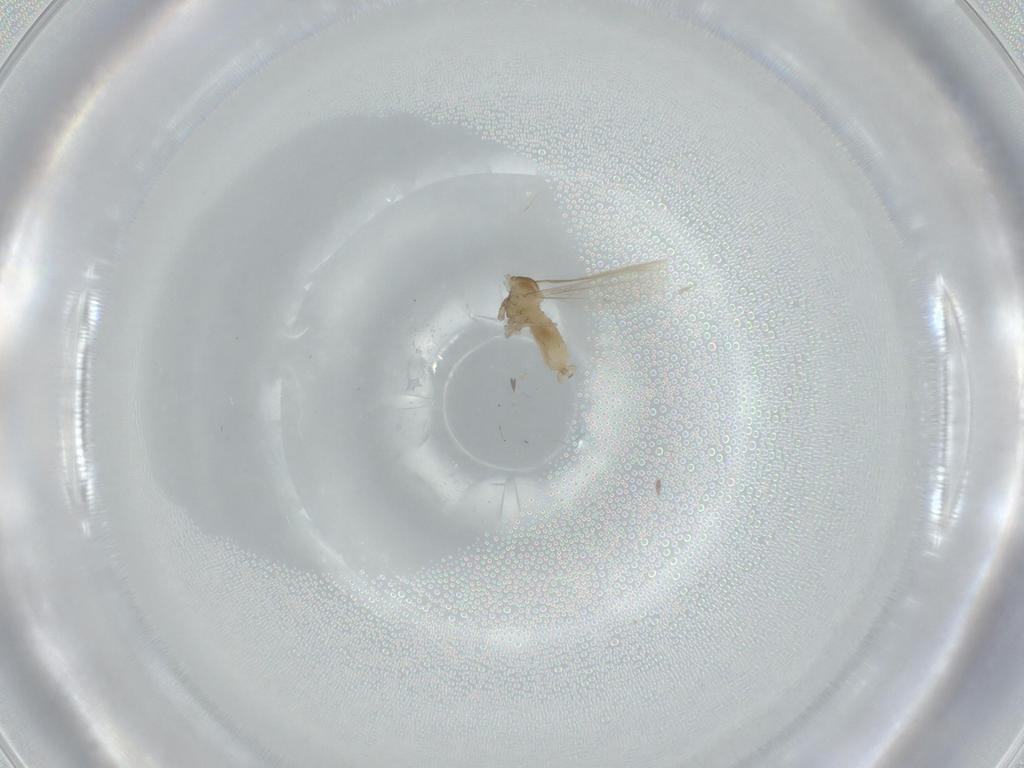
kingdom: Animalia
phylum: Arthropoda
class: Insecta
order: Diptera
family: Cecidomyiidae
